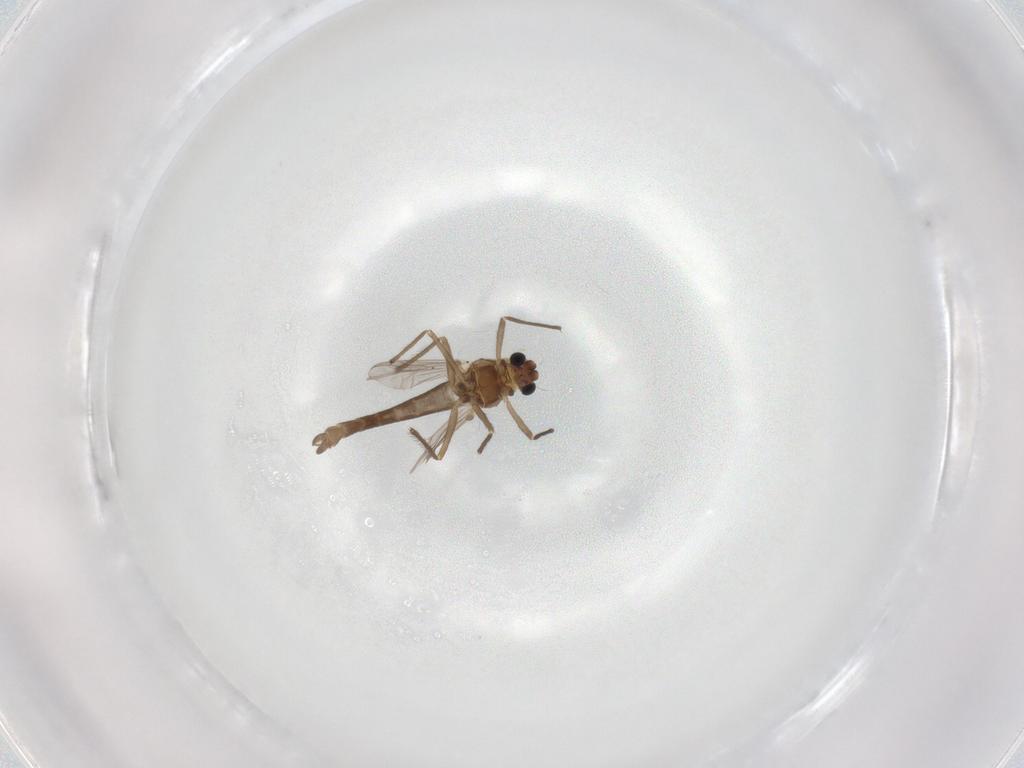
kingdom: Animalia
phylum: Arthropoda
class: Insecta
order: Diptera
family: Chironomidae
